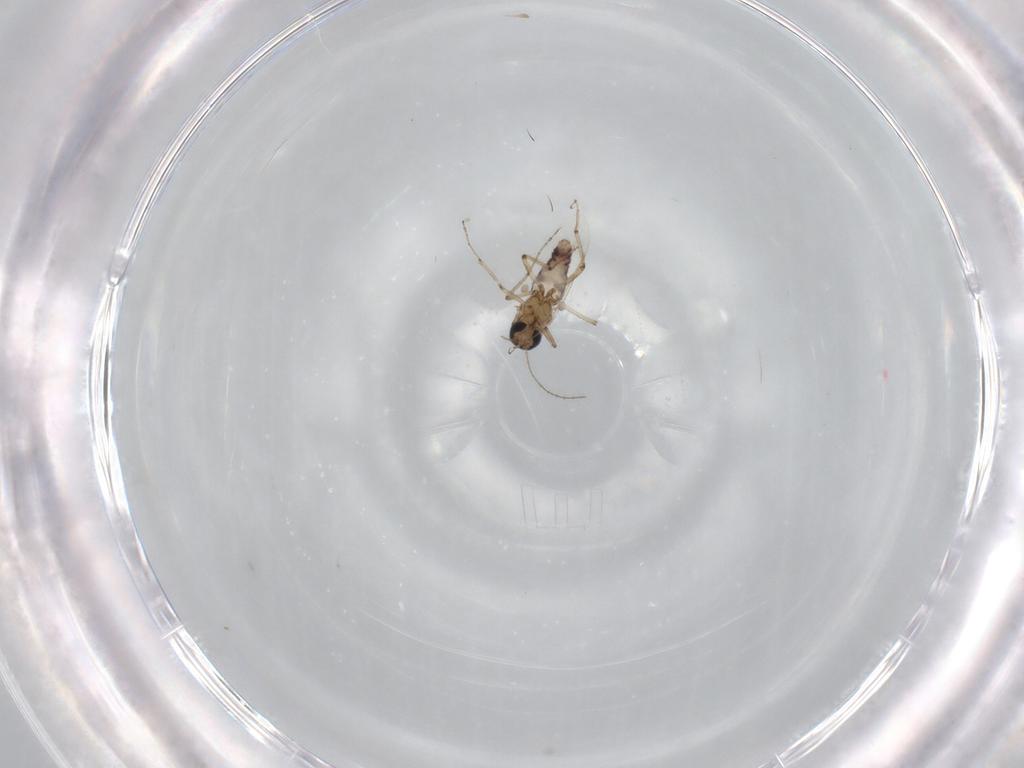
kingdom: Animalia
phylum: Arthropoda
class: Insecta
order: Diptera
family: Ceratopogonidae
